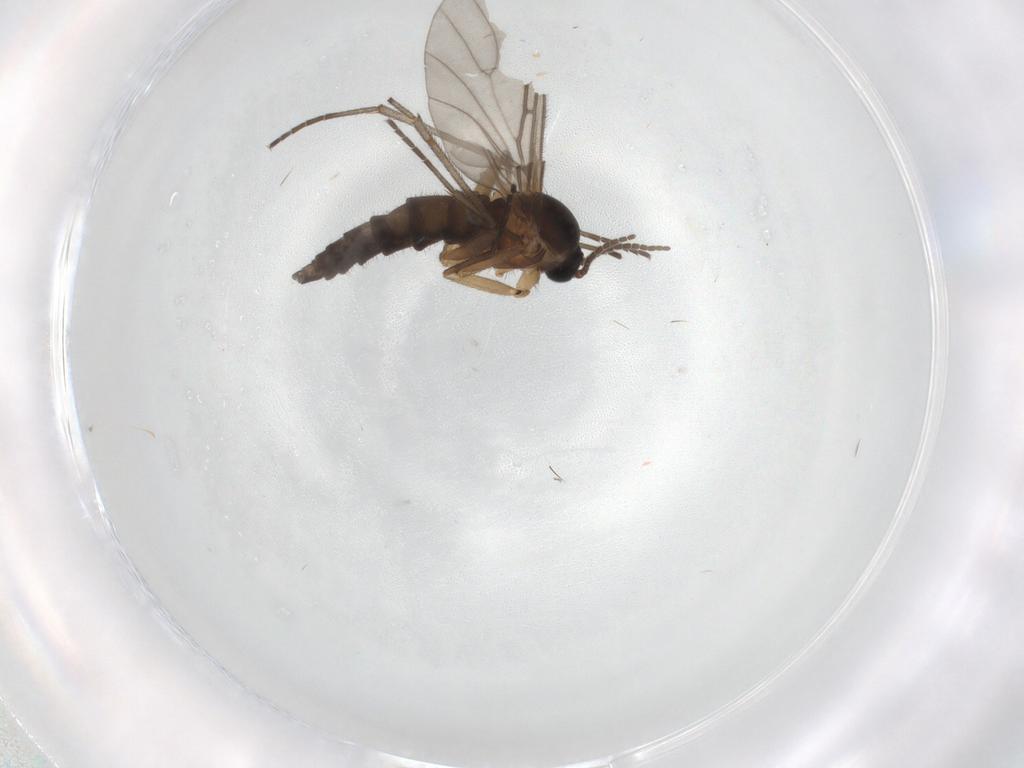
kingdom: Animalia
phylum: Arthropoda
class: Insecta
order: Diptera
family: Sciaridae
